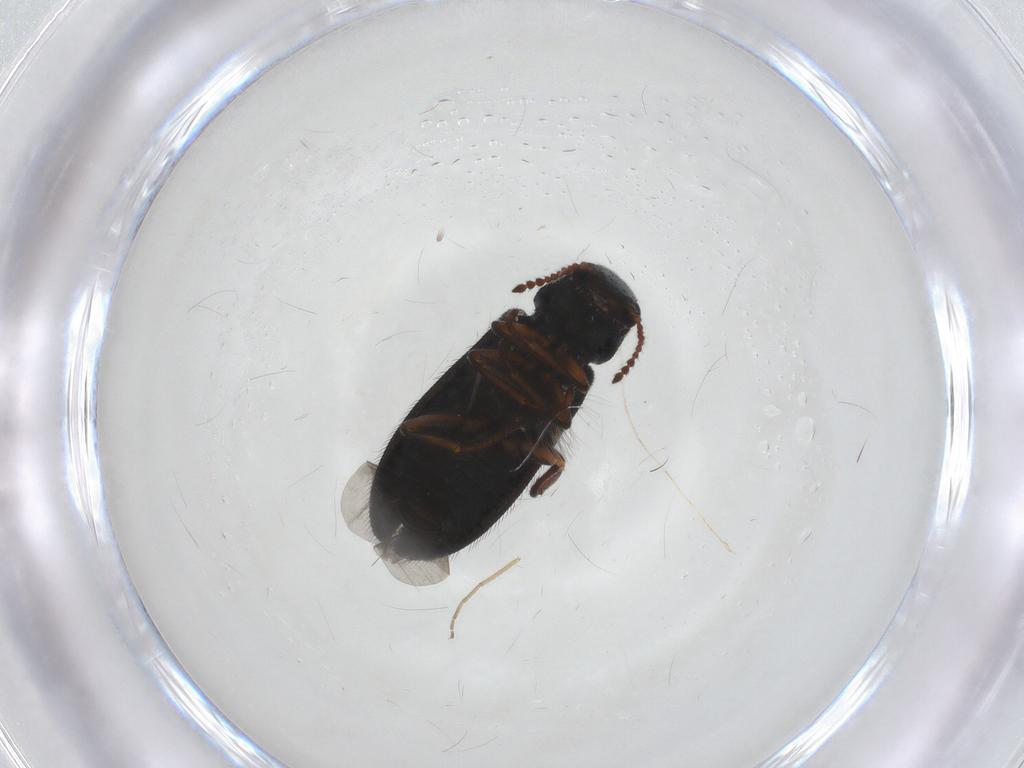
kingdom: Animalia
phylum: Arthropoda
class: Insecta
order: Coleoptera
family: Melyridae
